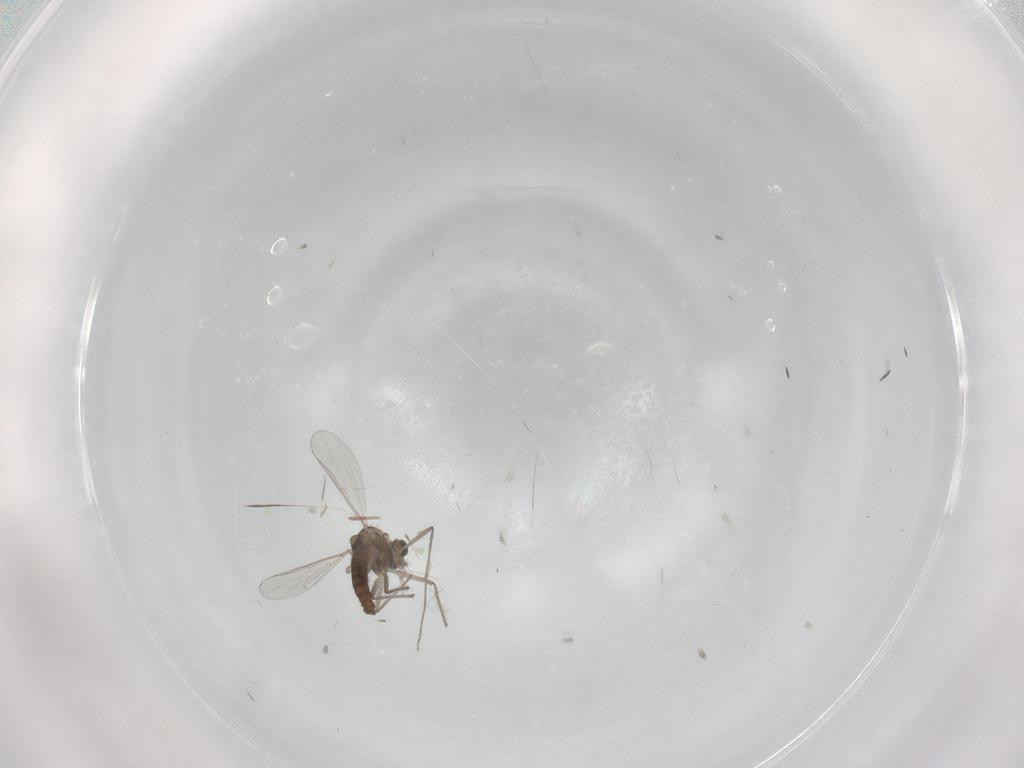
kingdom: Animalia
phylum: Arthropoda
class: Insecta
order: Diptera
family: Chironomidae
